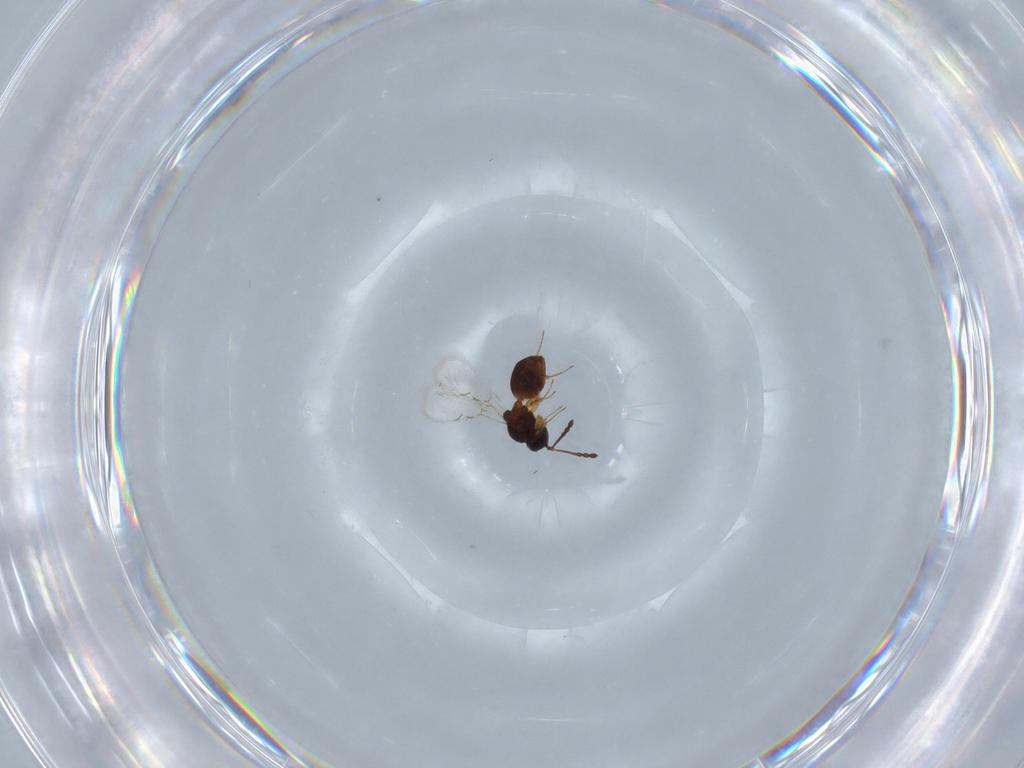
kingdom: Animalia
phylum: Arthropoda
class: Insecta
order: Hymenoptera
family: Figitidae
